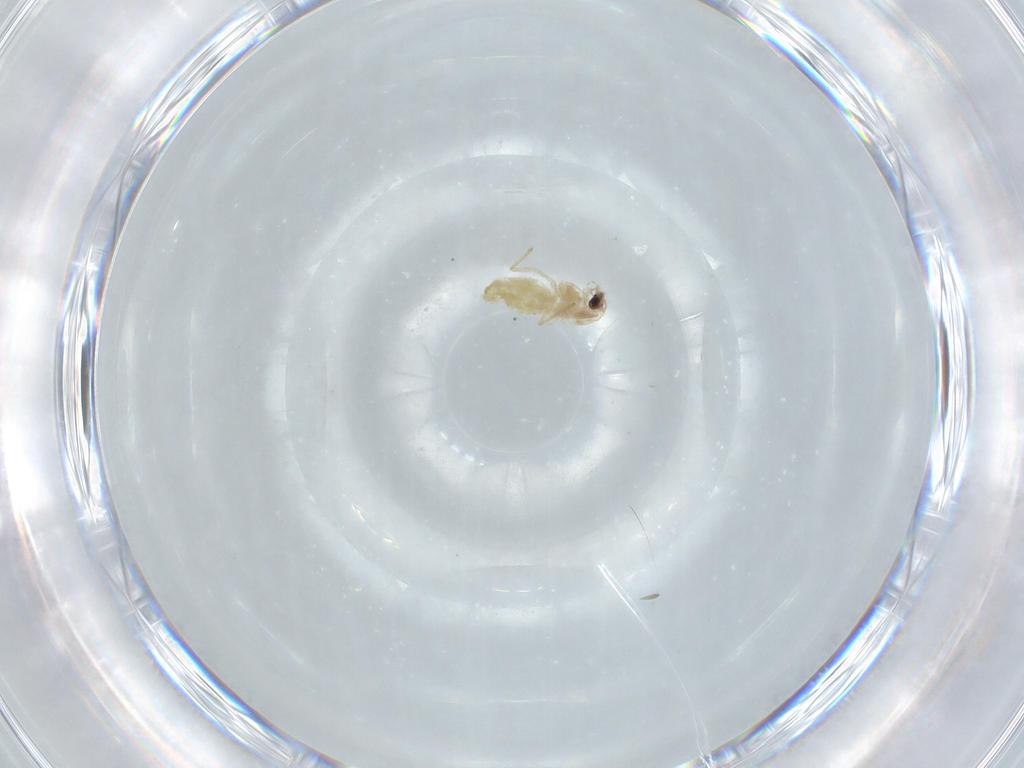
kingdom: Animalia
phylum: Arthropoda
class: Insecta
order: Diptera
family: Chironomidae
